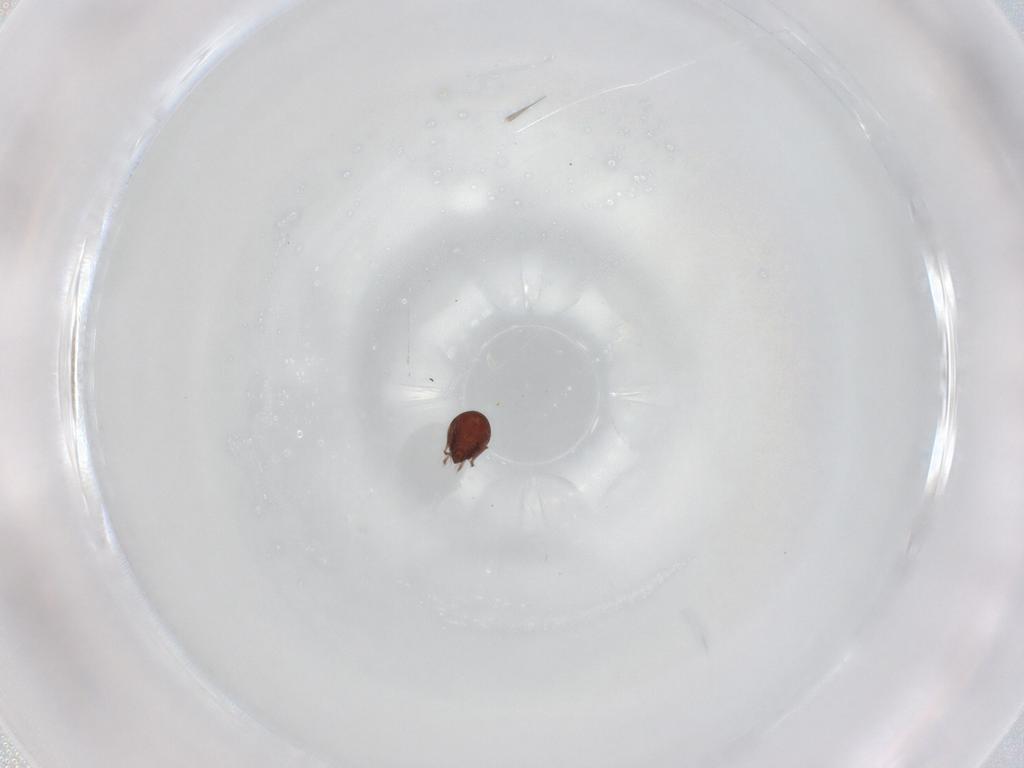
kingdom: Animalia
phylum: Arthropoda
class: Arachnida
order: Sarcoptiformes
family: Ceratozetidae
